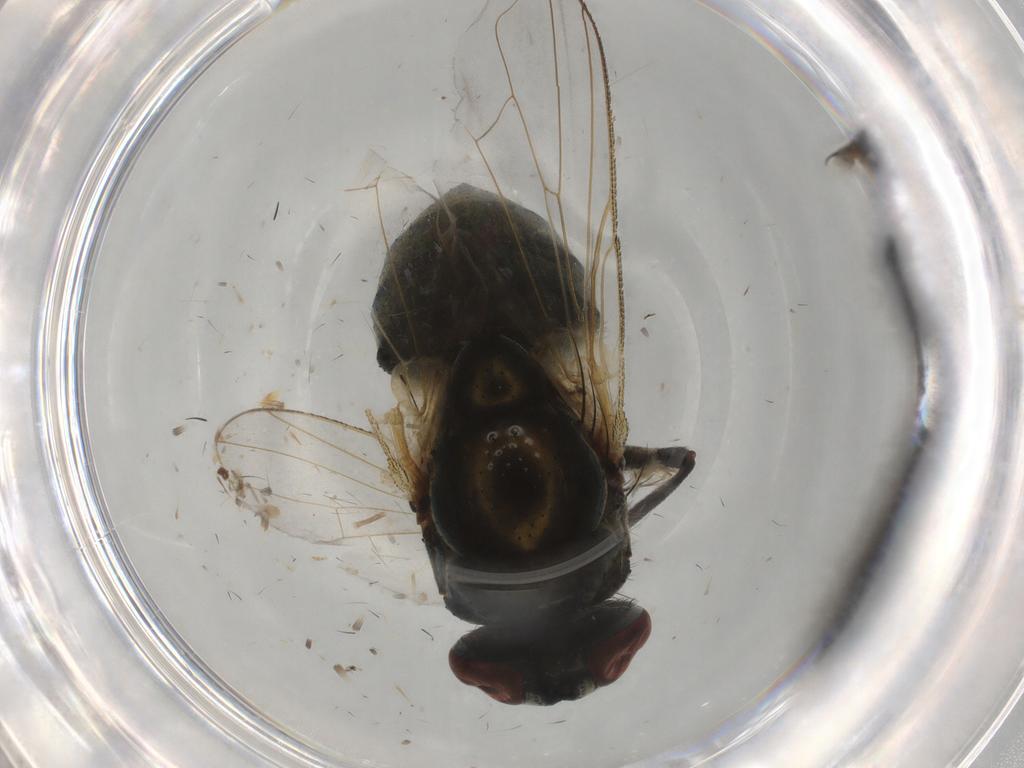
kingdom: Animalia
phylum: Arthropoda
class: Insecta
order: Diptera
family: Muscidae
